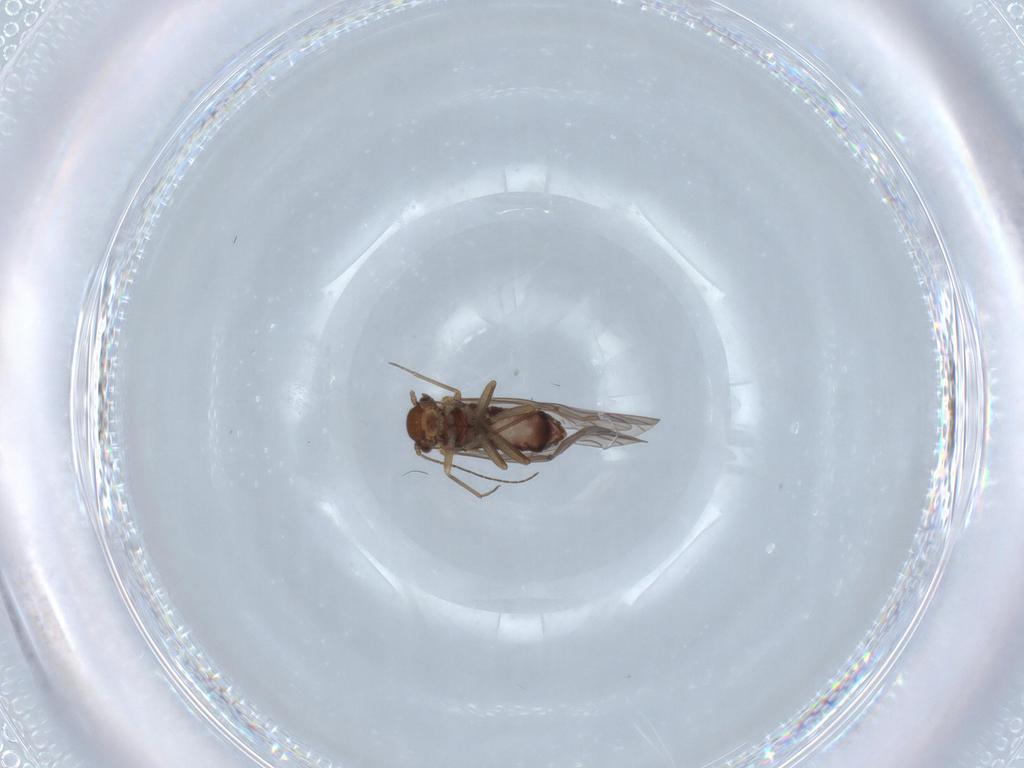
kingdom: Animalia
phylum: Arthropoda
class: Insecta
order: Psocodea
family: Lachesillidae
